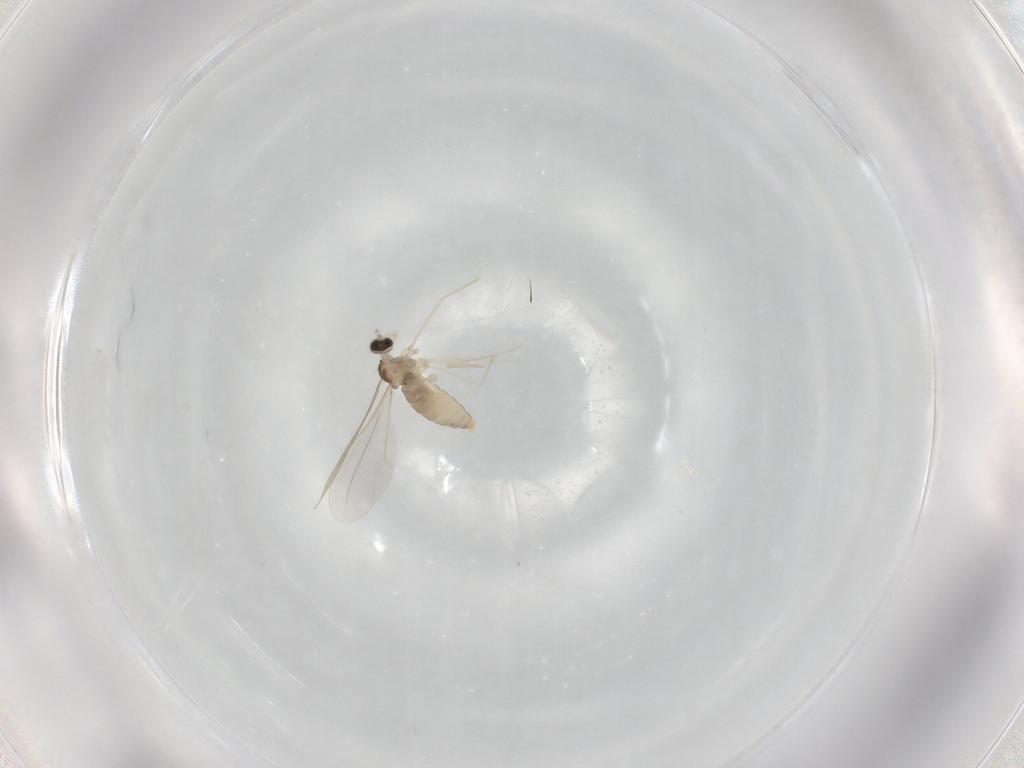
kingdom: Animalia
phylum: Arthropoda
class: Insecta
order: Diptera
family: Cecidomyiidae
